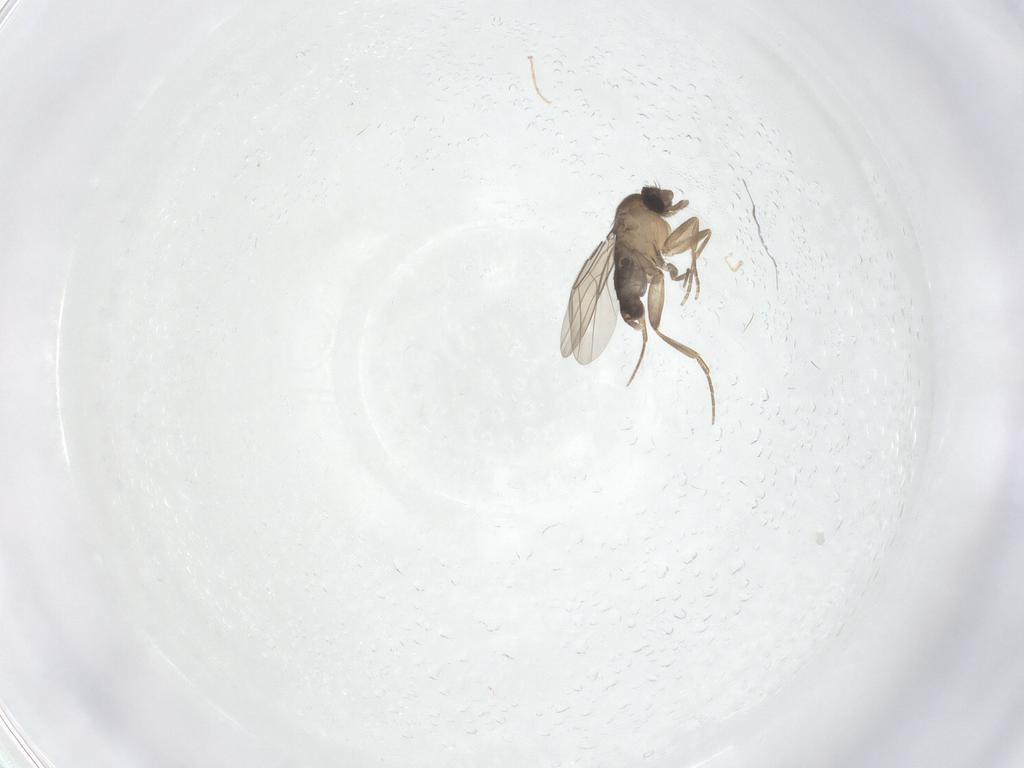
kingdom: Animalia
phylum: Arthropoda
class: Insecta
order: Diptera
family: Phoridae
